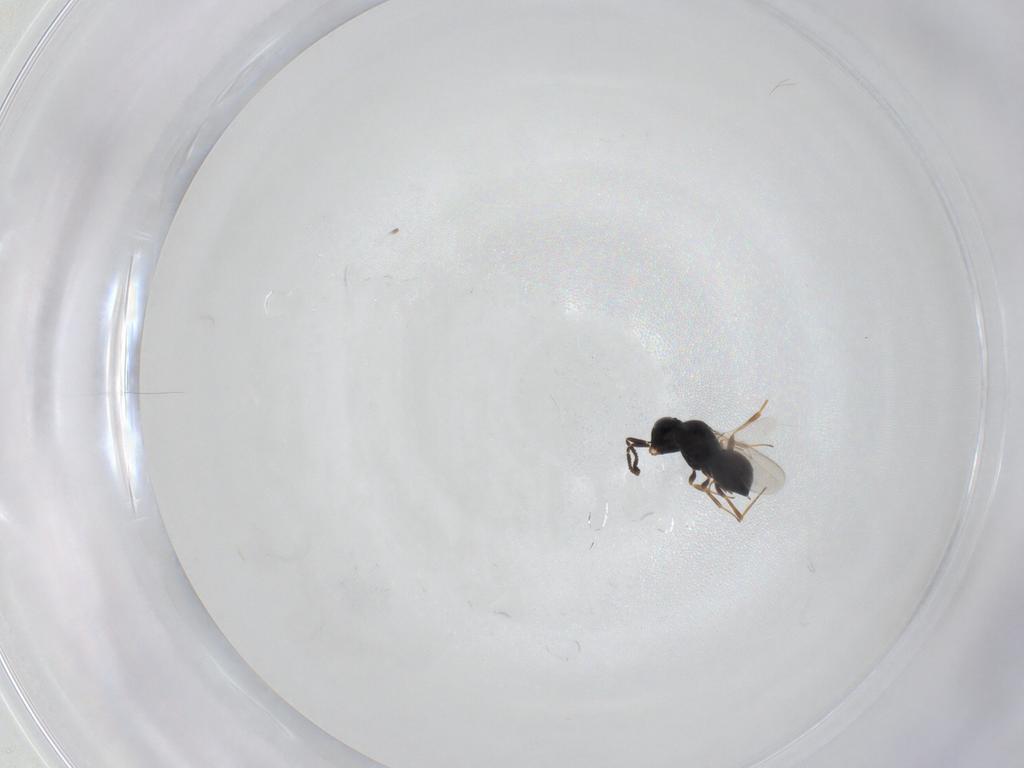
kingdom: Animalia
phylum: Arthropoda
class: Insecta
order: Hymenoptera
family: Scelionidae
